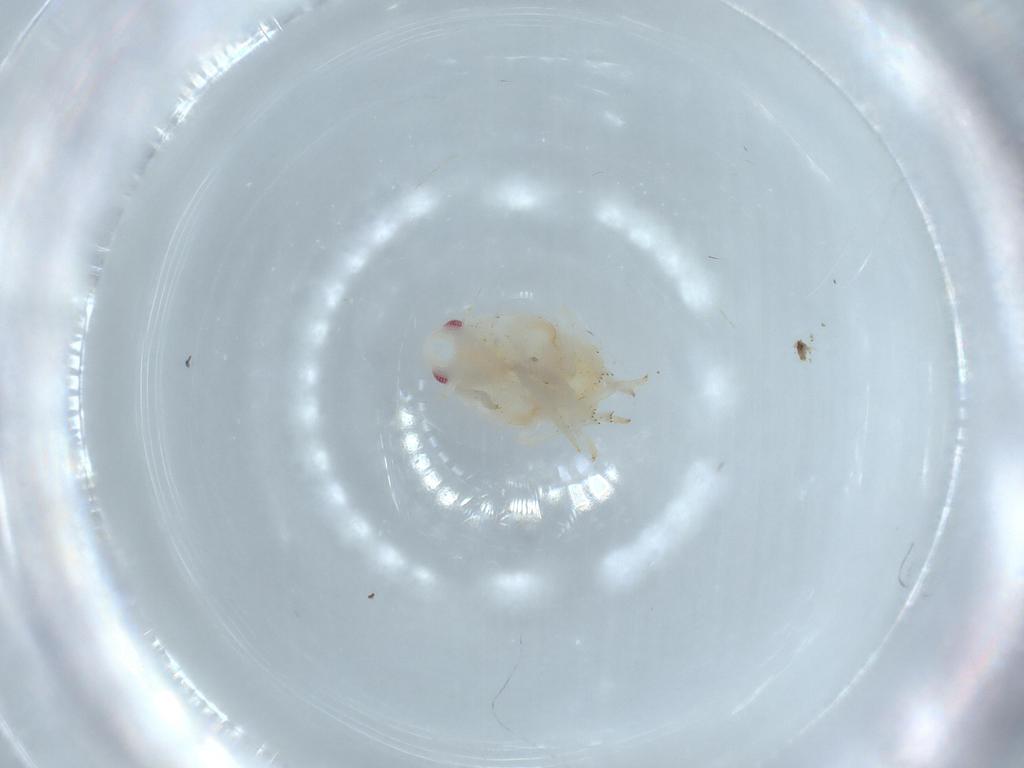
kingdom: Animalia
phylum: Arthropoda
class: Insecta
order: Hemiptera
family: Flatidae
